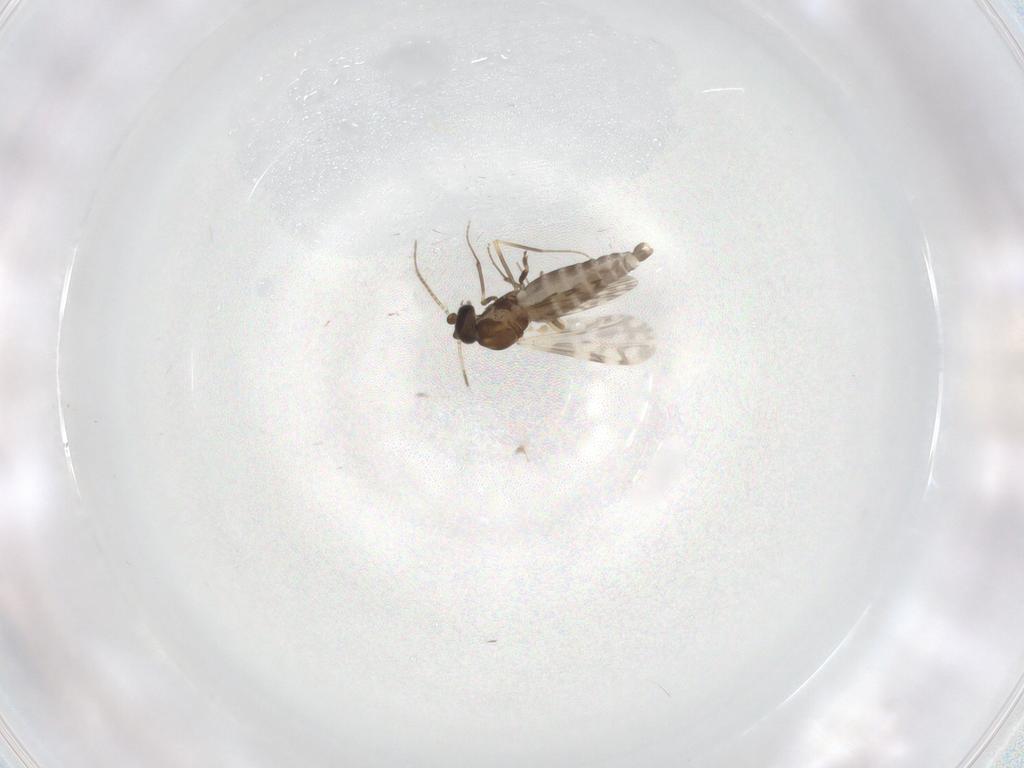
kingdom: Animalia
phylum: Arthropoda
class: Insecta
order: Diptera
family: Ceratopogonidae
